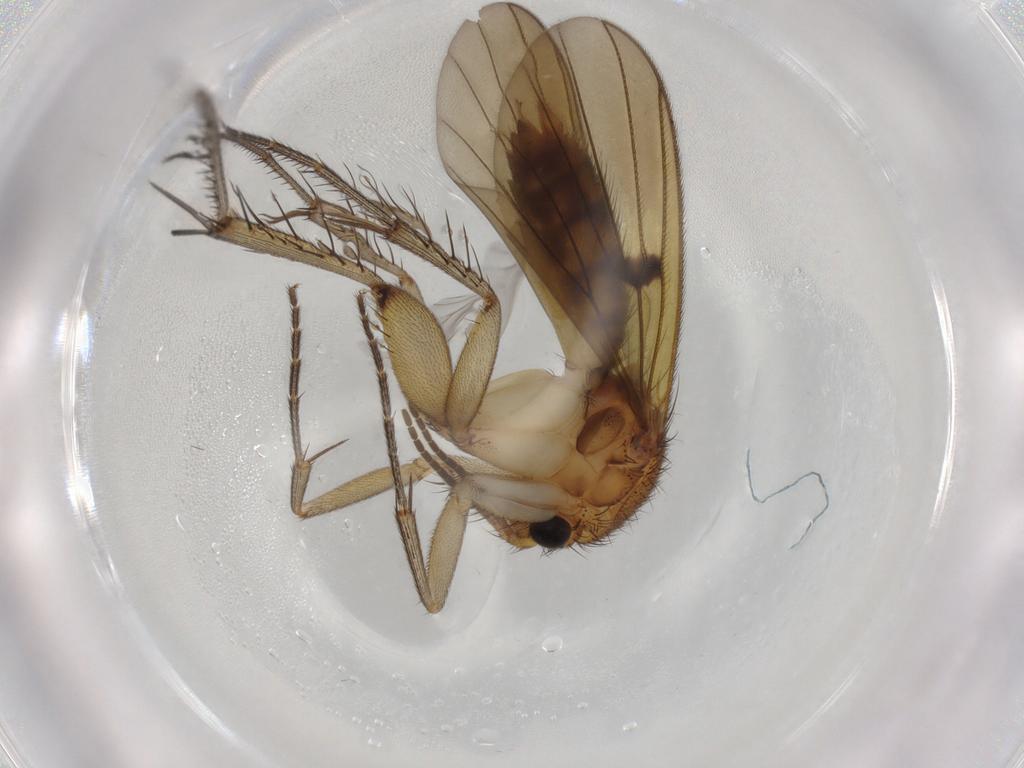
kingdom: Animalia
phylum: Arthropoda
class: Insecta
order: Diptera
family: Mycetophilidae
